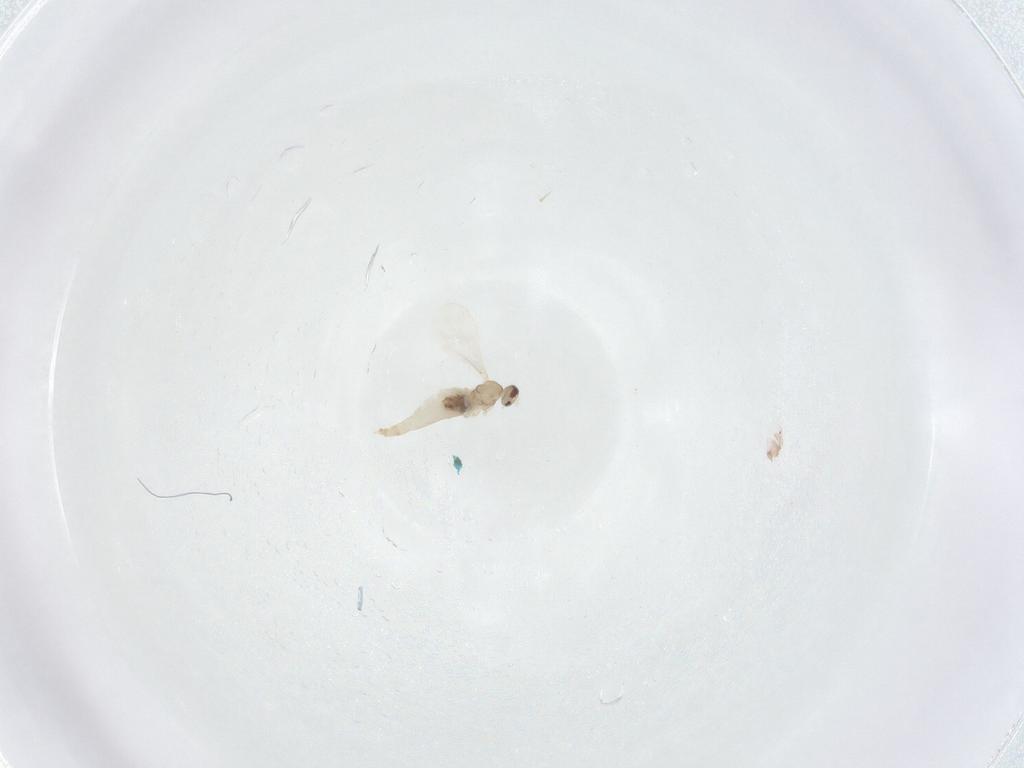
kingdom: Animalia
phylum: Arthropoda
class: Insecta
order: Diptera
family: Cecidomyiidae
